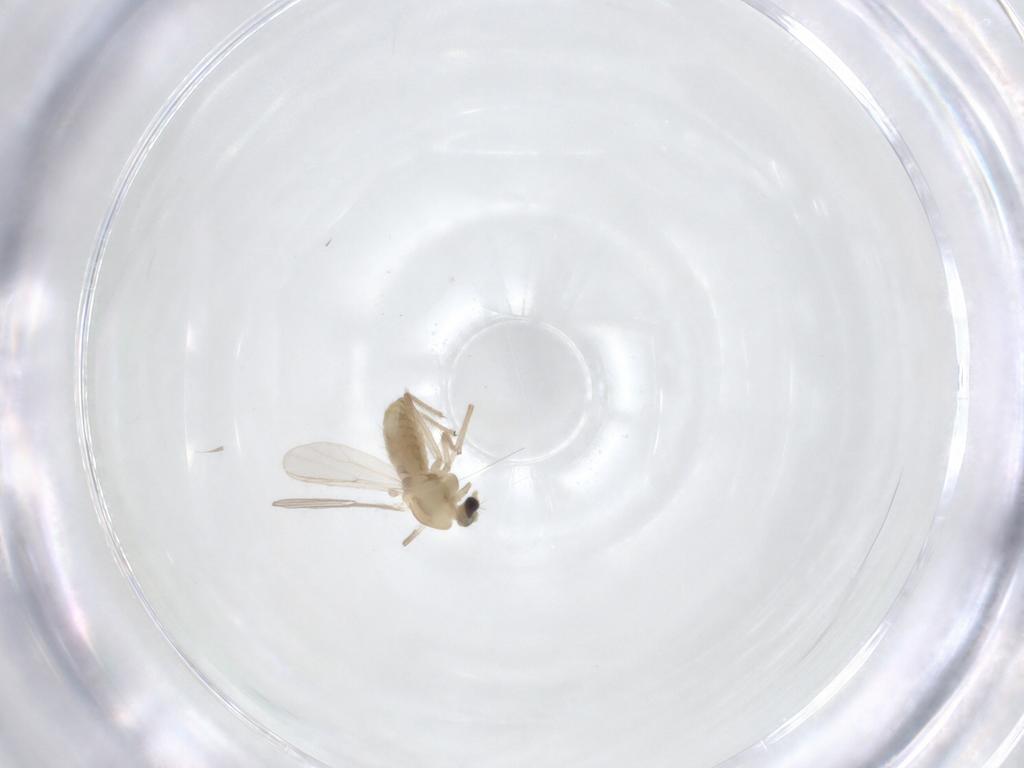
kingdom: Animalia
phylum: Arthropoda
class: Insecta
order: Diptera
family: Chironomidae
